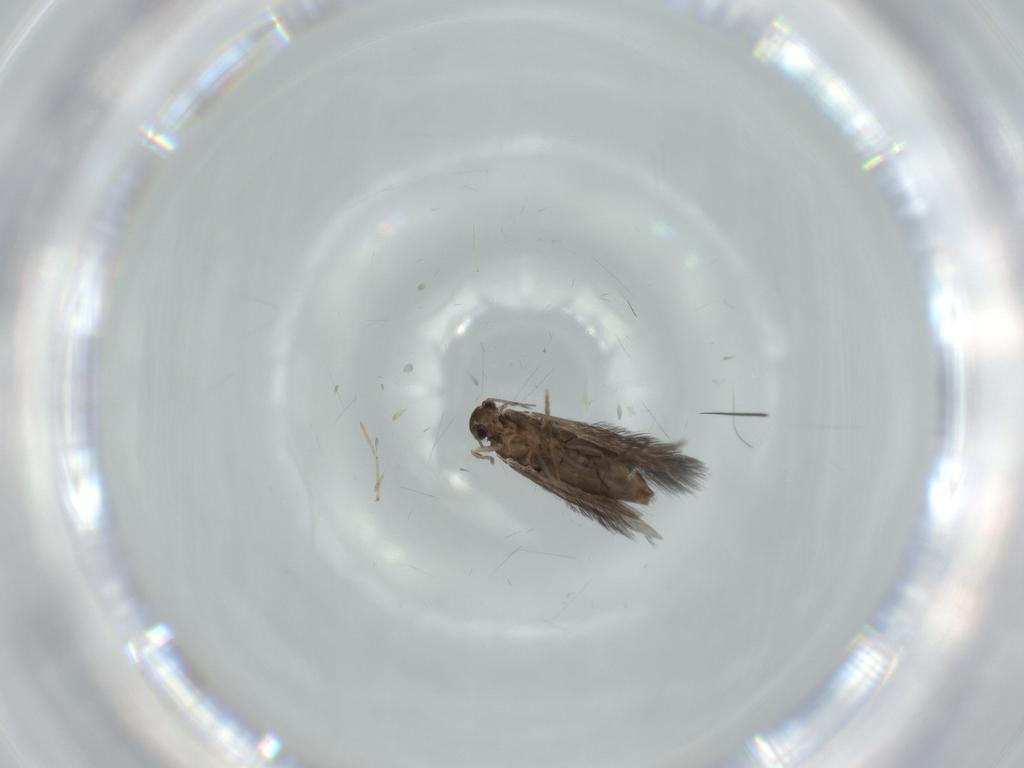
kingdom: Animalia
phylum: Arthropoda
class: Insecta
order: Trichoptera
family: Hydroptilidae
